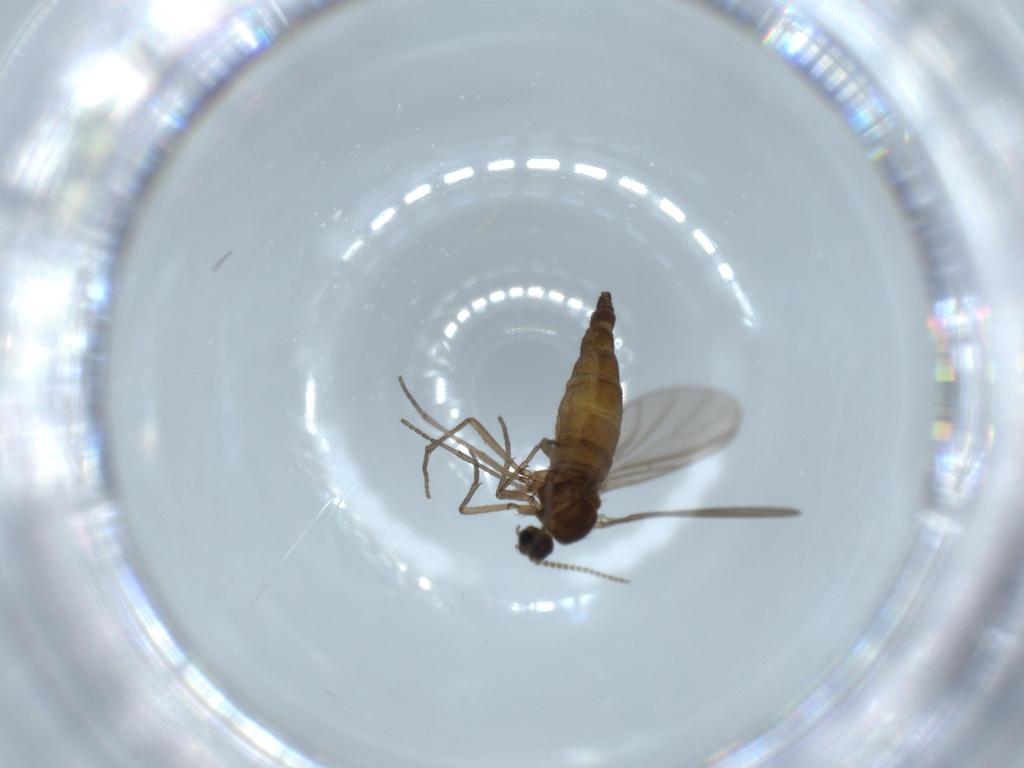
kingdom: Animalia
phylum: Arthropoda
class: Insecta
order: Diptera
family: Sciaridae
